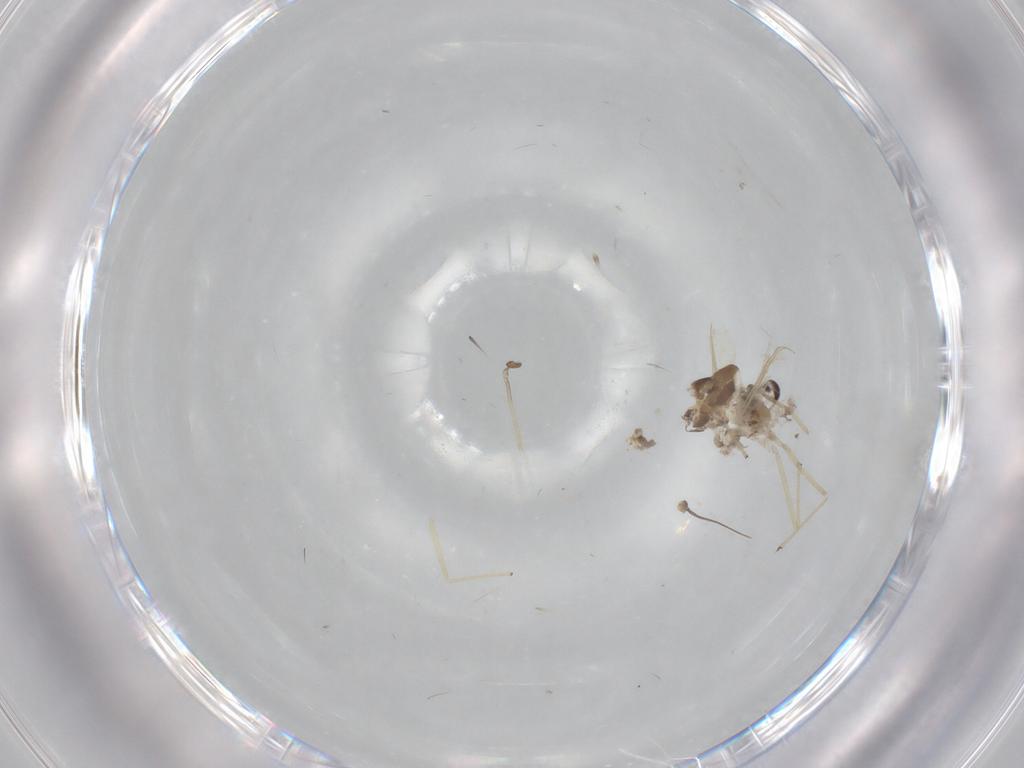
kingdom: Animalia
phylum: Arthropoda
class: Insecta
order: Diptera
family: Chironomidae
